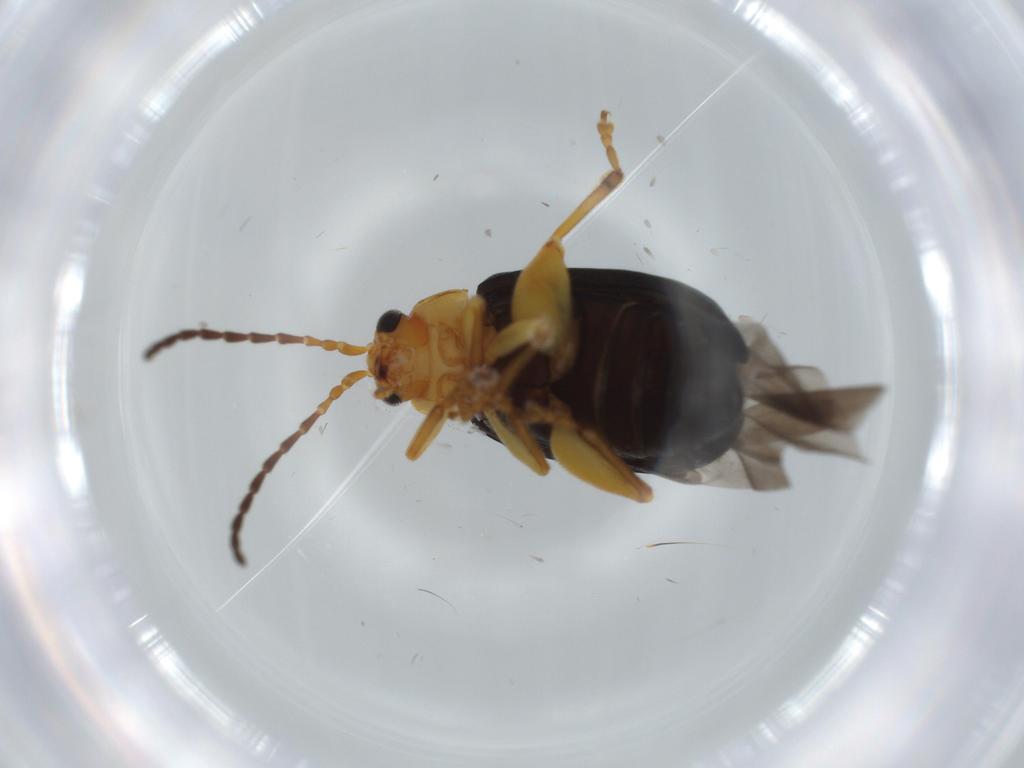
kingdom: Animalia
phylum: Arthropoda
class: Insecta
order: Coleoptera
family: Chrysomelidae
